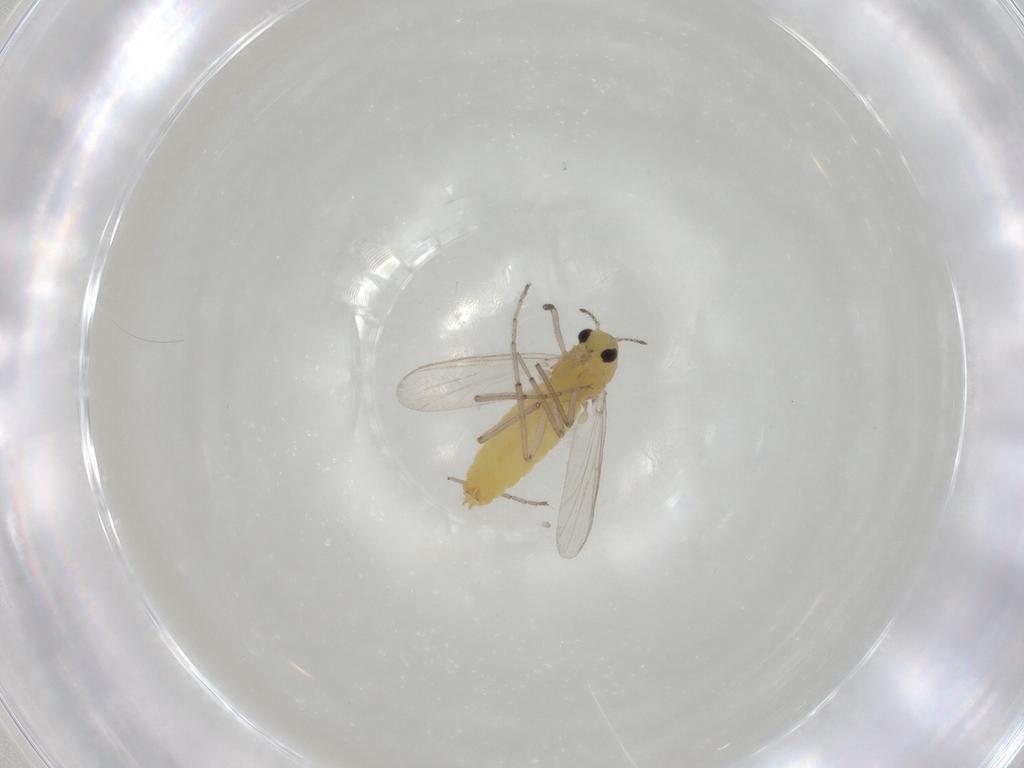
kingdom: Animalia
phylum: Arthropoda
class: Insecta
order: Diptera
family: Chironomidae
